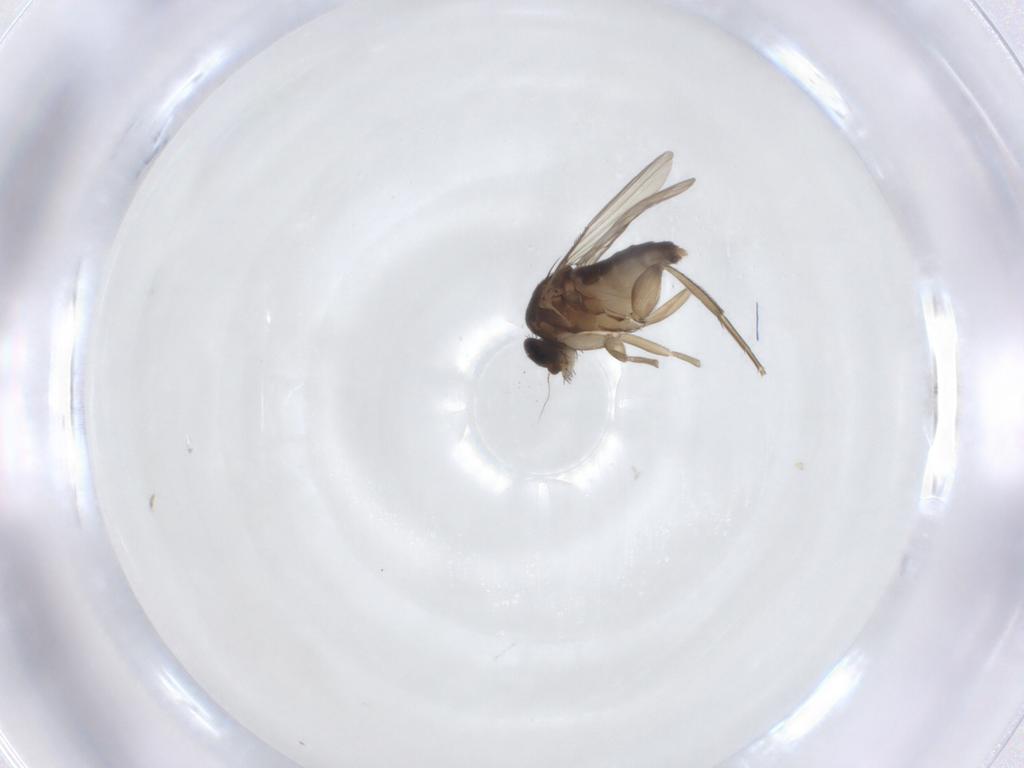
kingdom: Animalia
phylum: Arthropoda
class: Insecta
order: Diptera
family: Phoridae
